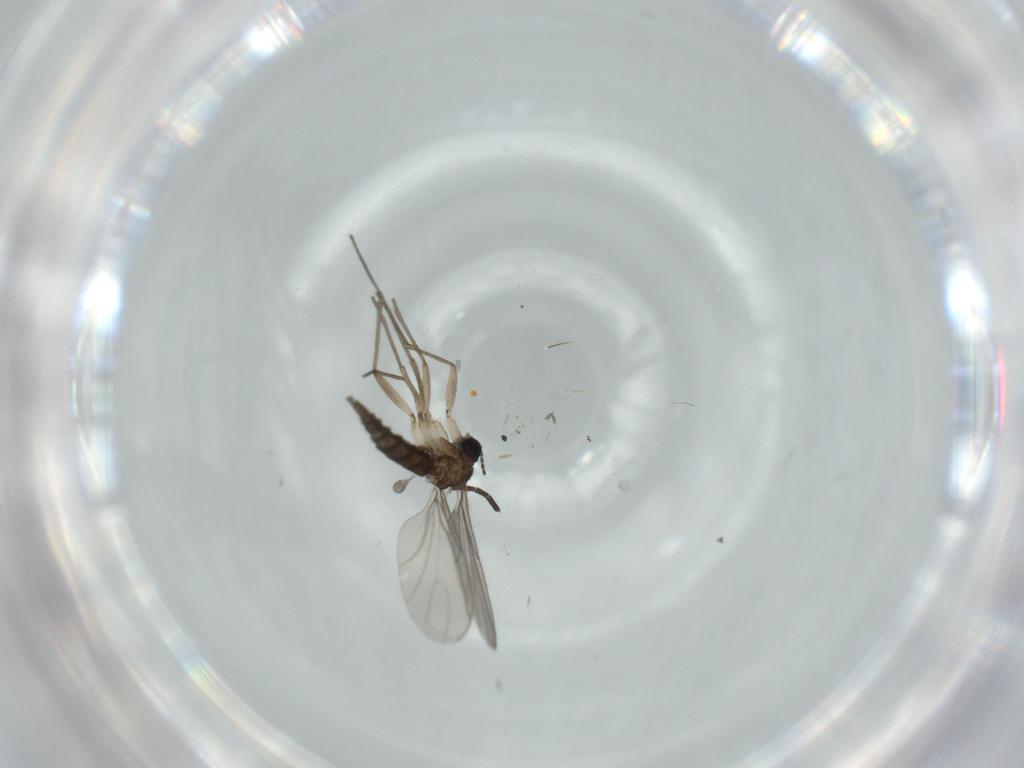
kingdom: Animalia
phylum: Arthropoda
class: Insecta
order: Diptera
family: Sciaridae
